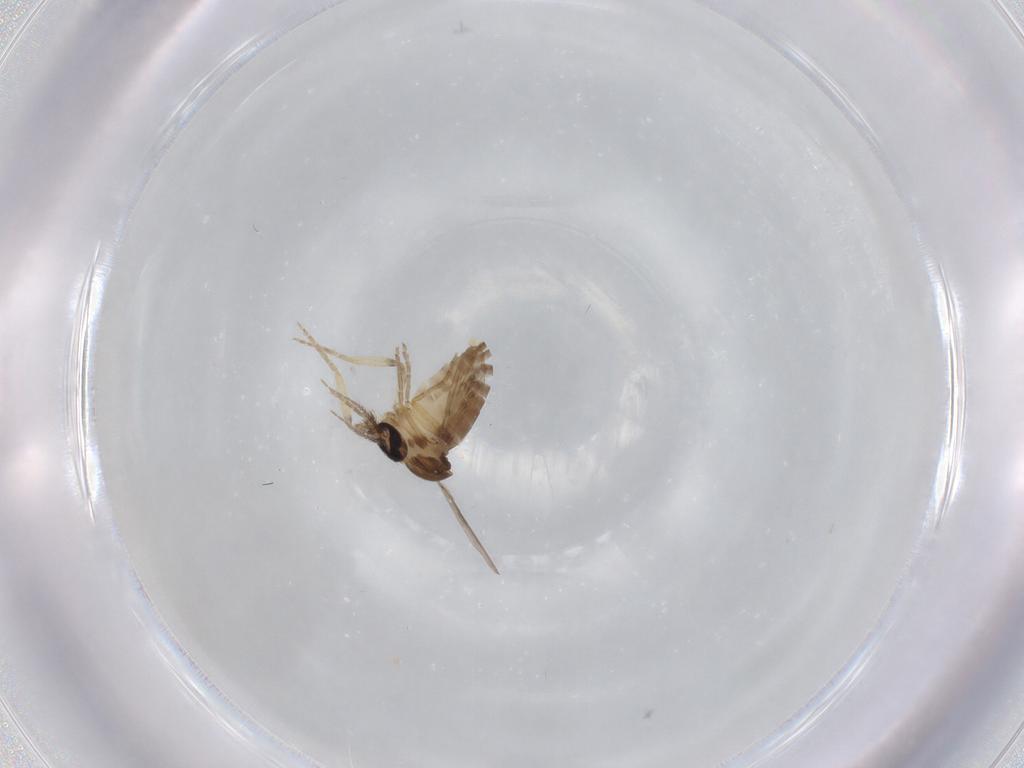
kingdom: Animalia
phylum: Arthropoda
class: Insecta
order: Diptera
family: Ceratopogonidae
